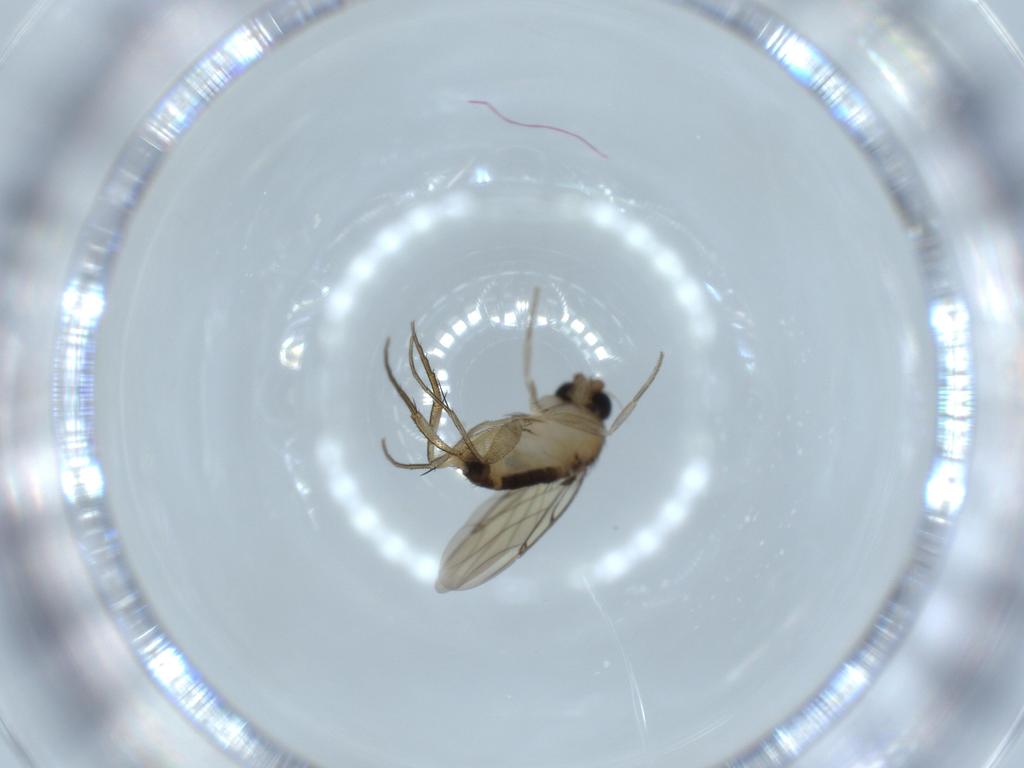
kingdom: Animalia
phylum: Arthropoda
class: Insecta
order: Diptera
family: Phoridae
